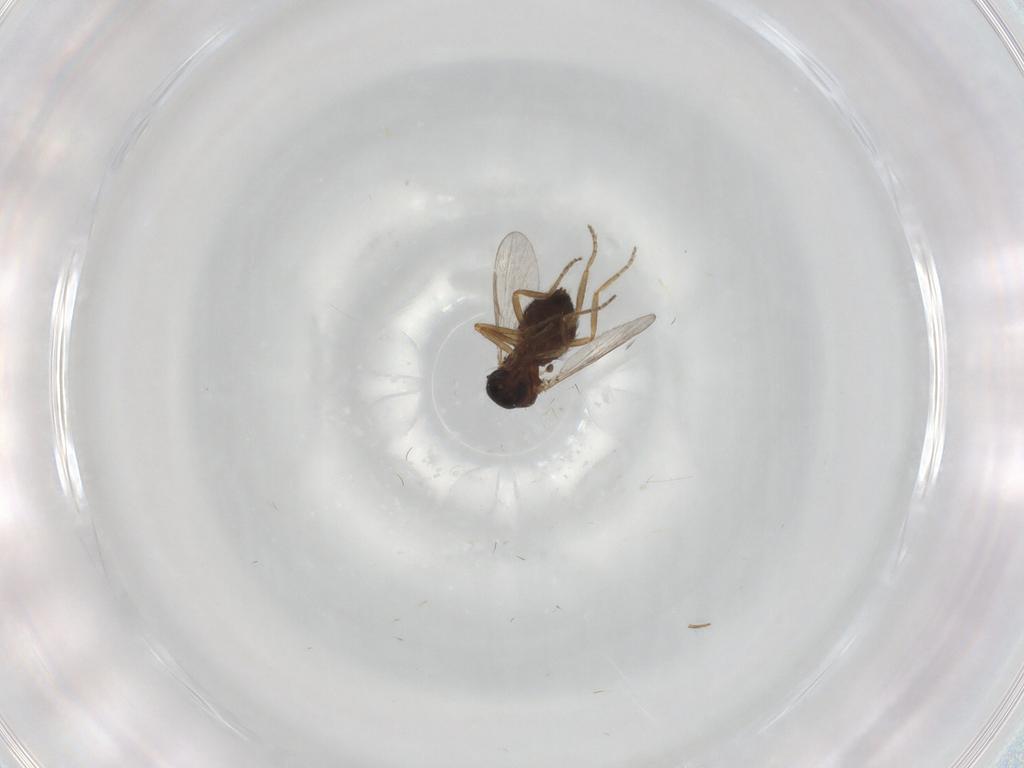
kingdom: Animalia
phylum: Arthropoda
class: Insecta
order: Diptera
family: Ceratopogonidae
